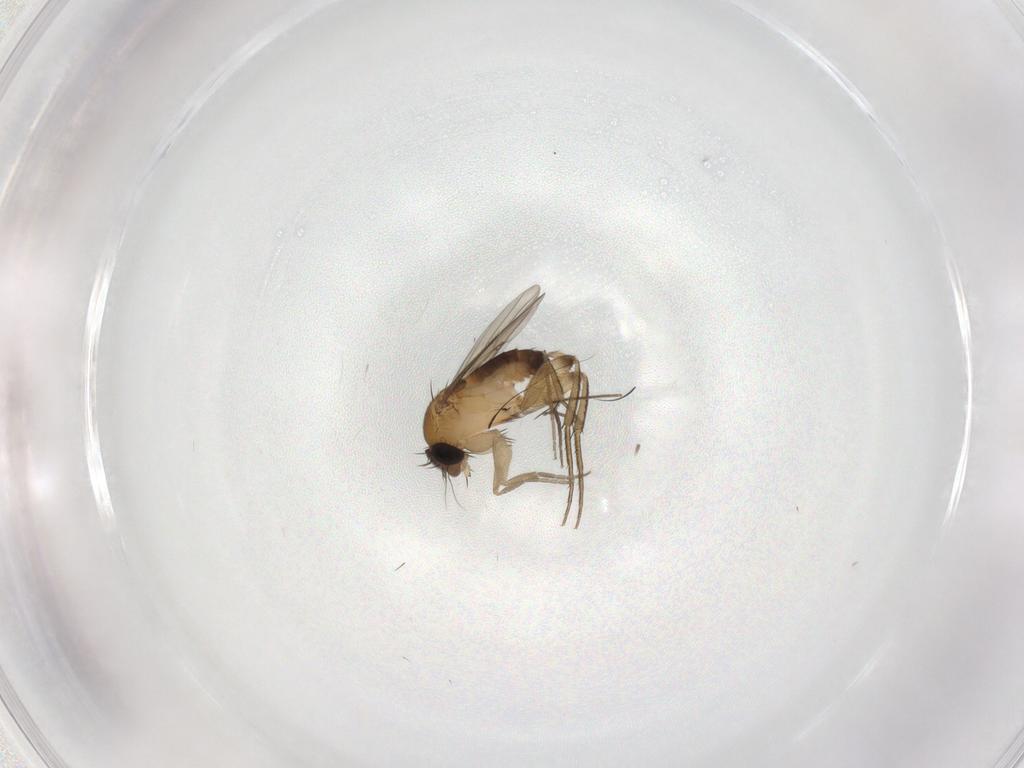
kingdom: Animalia
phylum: Arthropoda
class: Insecta
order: Diptera
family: Phoridae
